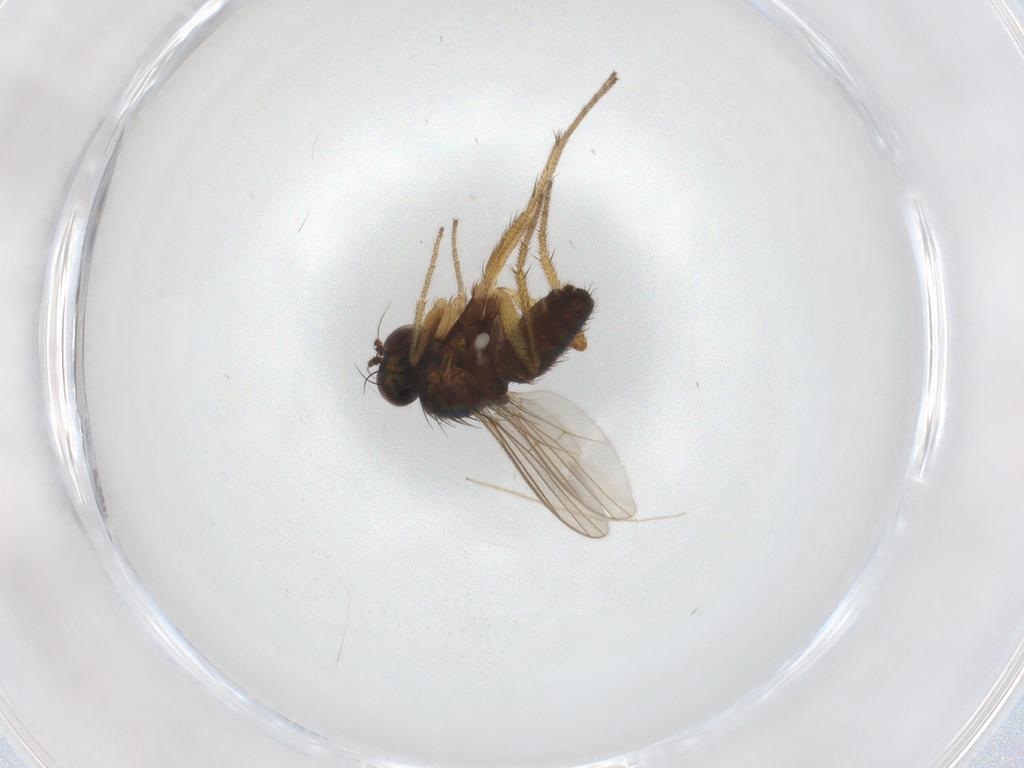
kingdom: Animalia
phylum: Arthropoda
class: Insecta
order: Diptera
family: Dolichopodidae
